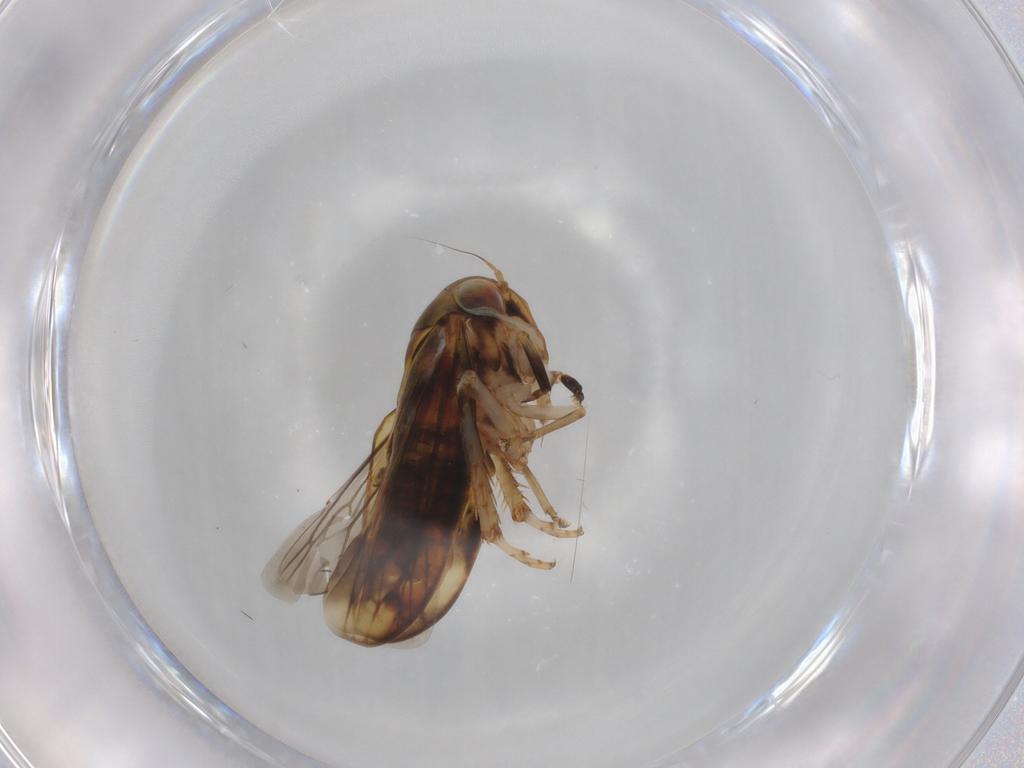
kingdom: Animalia
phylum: Arthropoda
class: Insecta
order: Hemiptera
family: Cicadellidae
